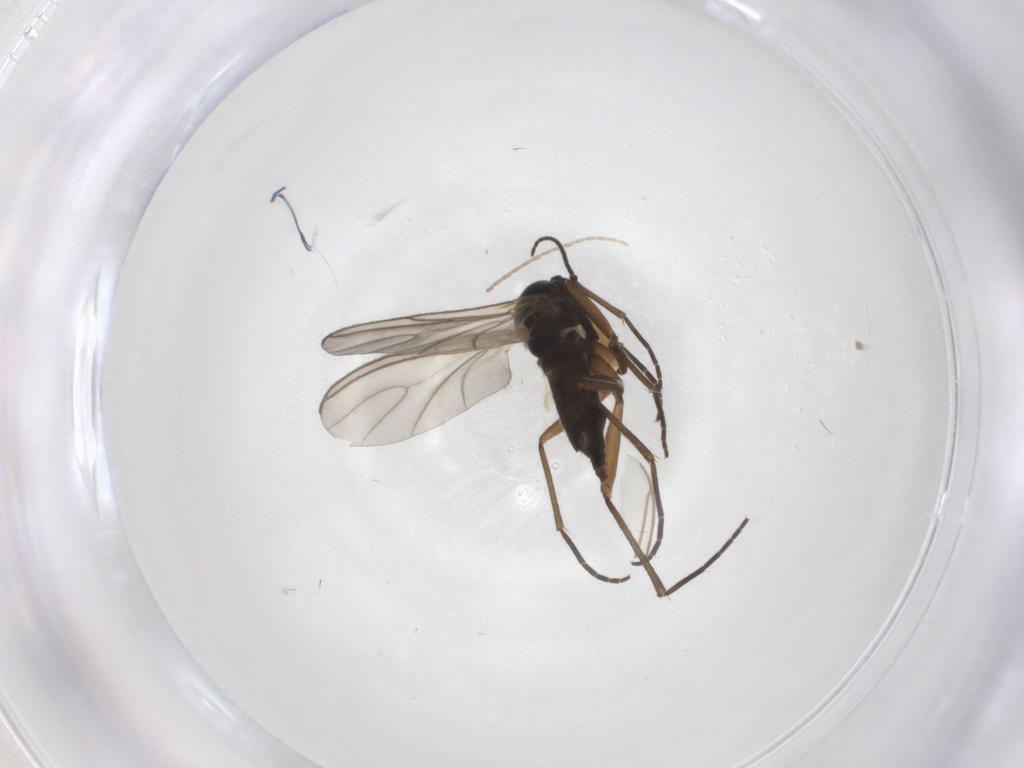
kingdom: Animalia
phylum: Arthropoda
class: Insecta
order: Diptera
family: Sciaridae
